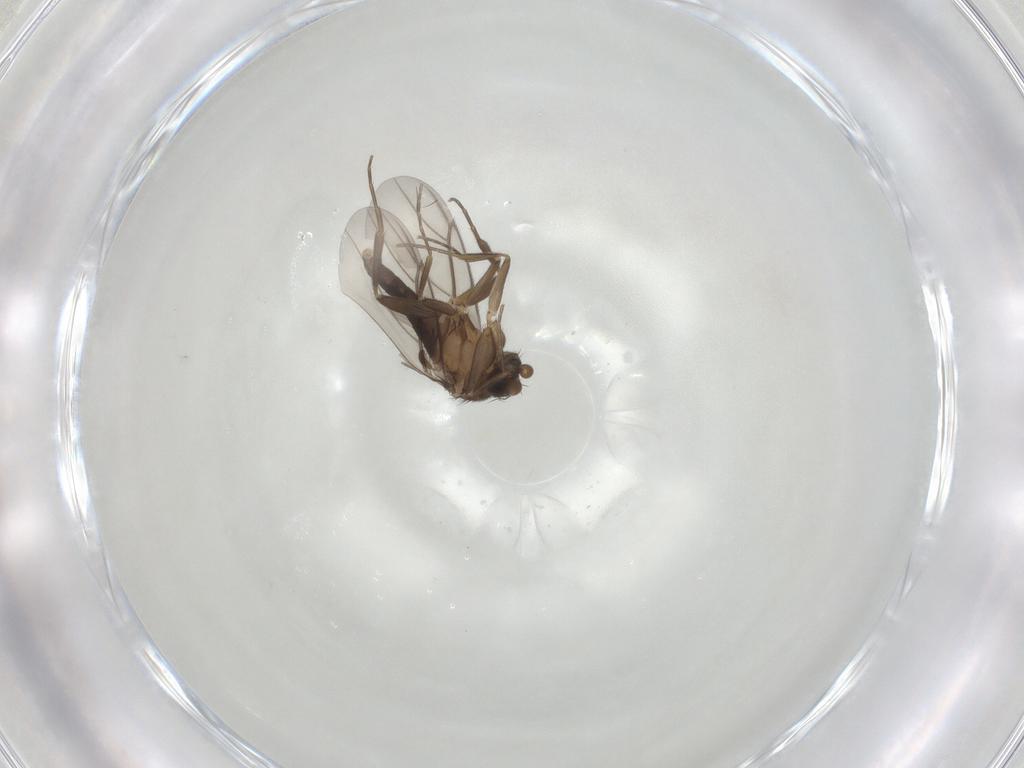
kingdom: Animalia
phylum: Arthropoda
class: Insecta
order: Diptera
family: Phoridae
